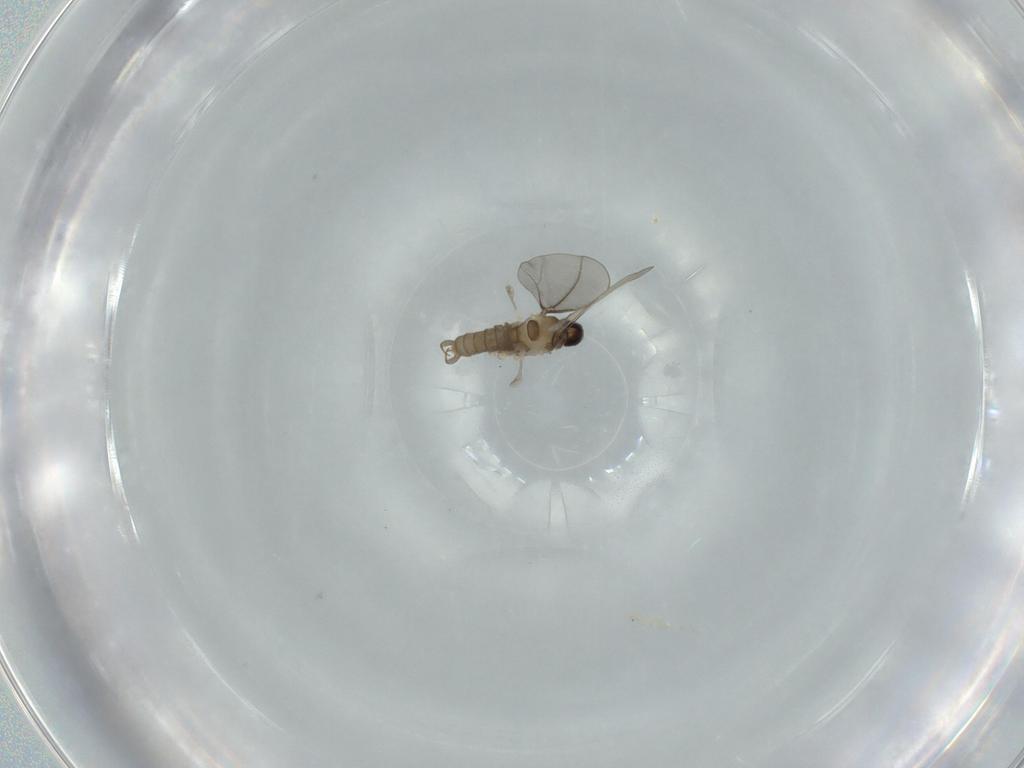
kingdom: Animalia
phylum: Arthropoda
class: Insecta
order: Diptera
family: Cecidomyiidae
